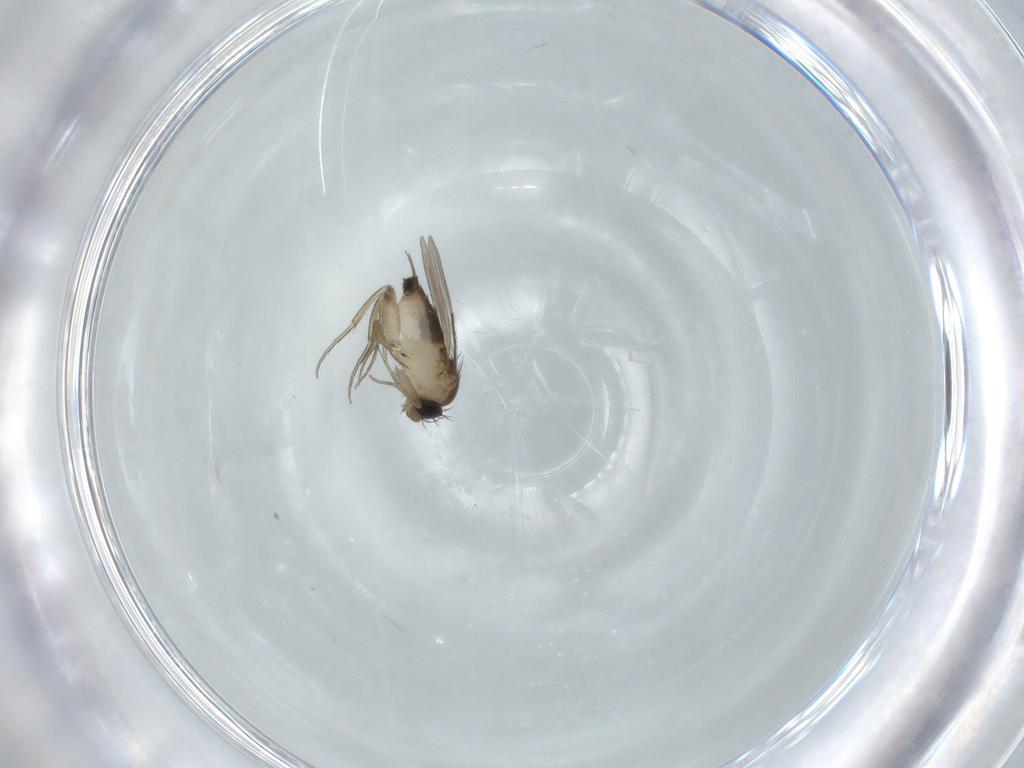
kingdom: Animalia
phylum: Arthropoda
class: Insecta
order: Diptera
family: Phoridae
